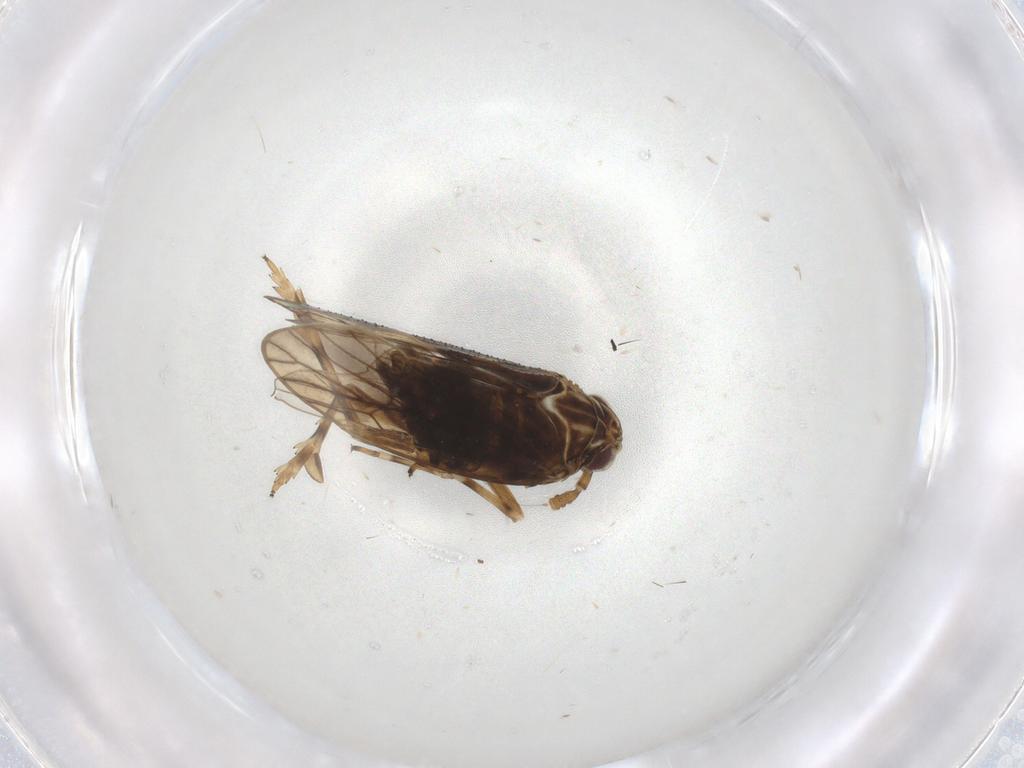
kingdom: Animalia
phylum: Arthropoda
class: Insecta
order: Hemiptera
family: Delphacidae
